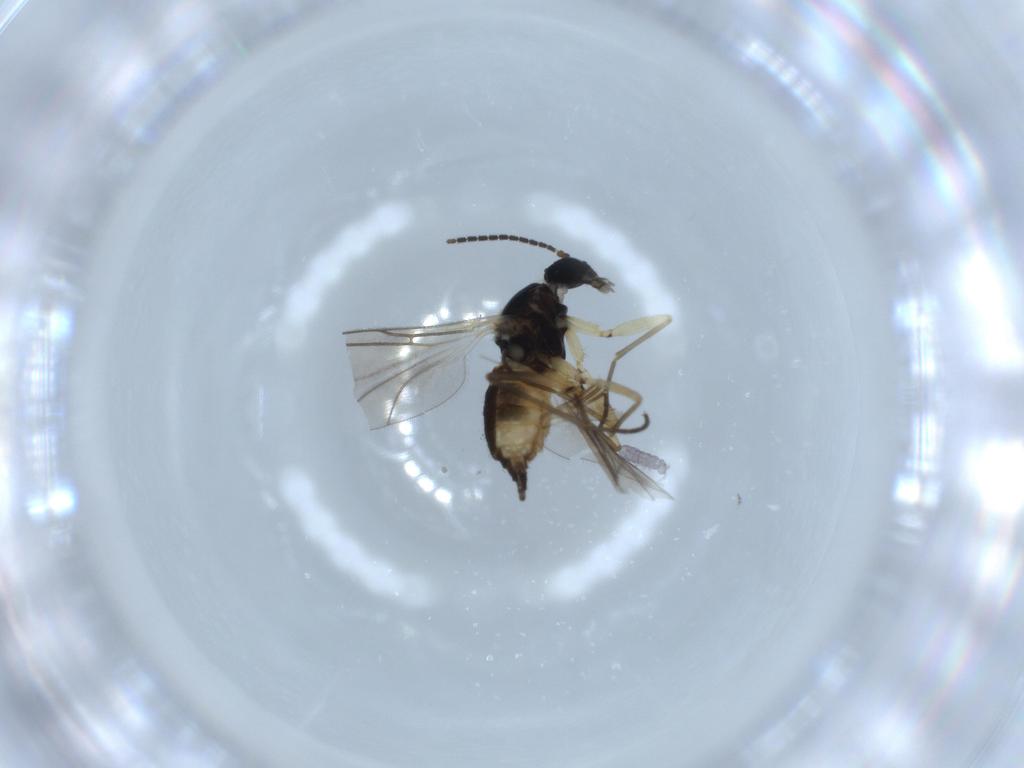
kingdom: Animalia
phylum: Arthropoda
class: Insecta
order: Diptera
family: Sciaridae
